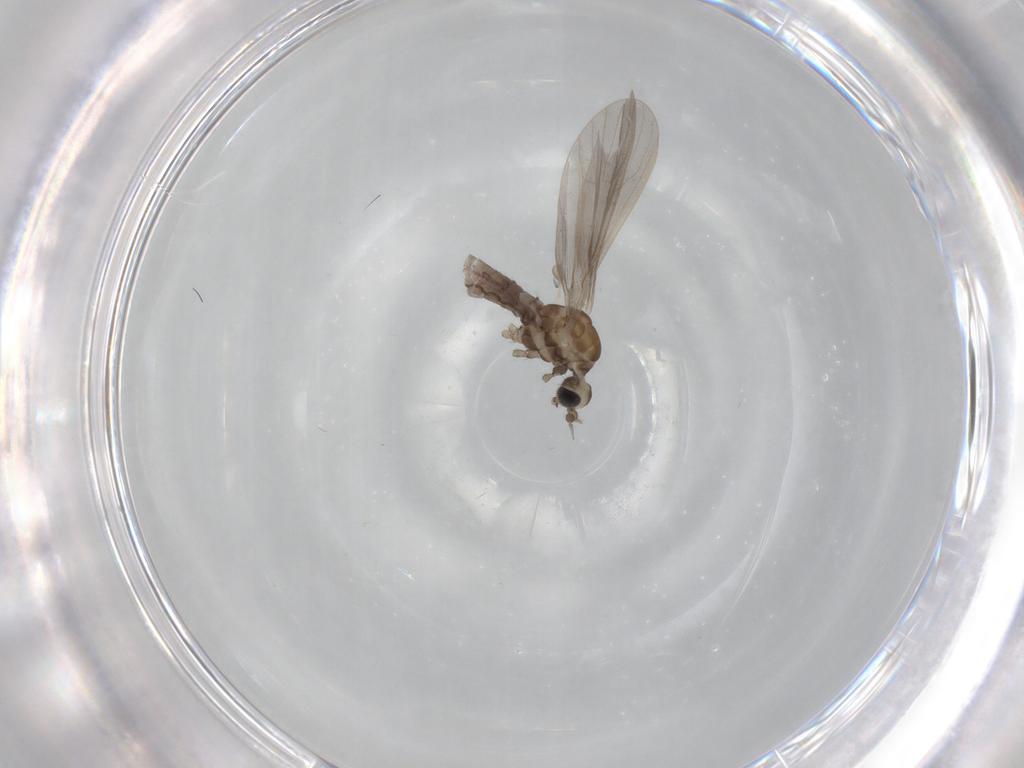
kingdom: Animalia
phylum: Arthropoda
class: Insecta
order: Diptera
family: Limoniidae
